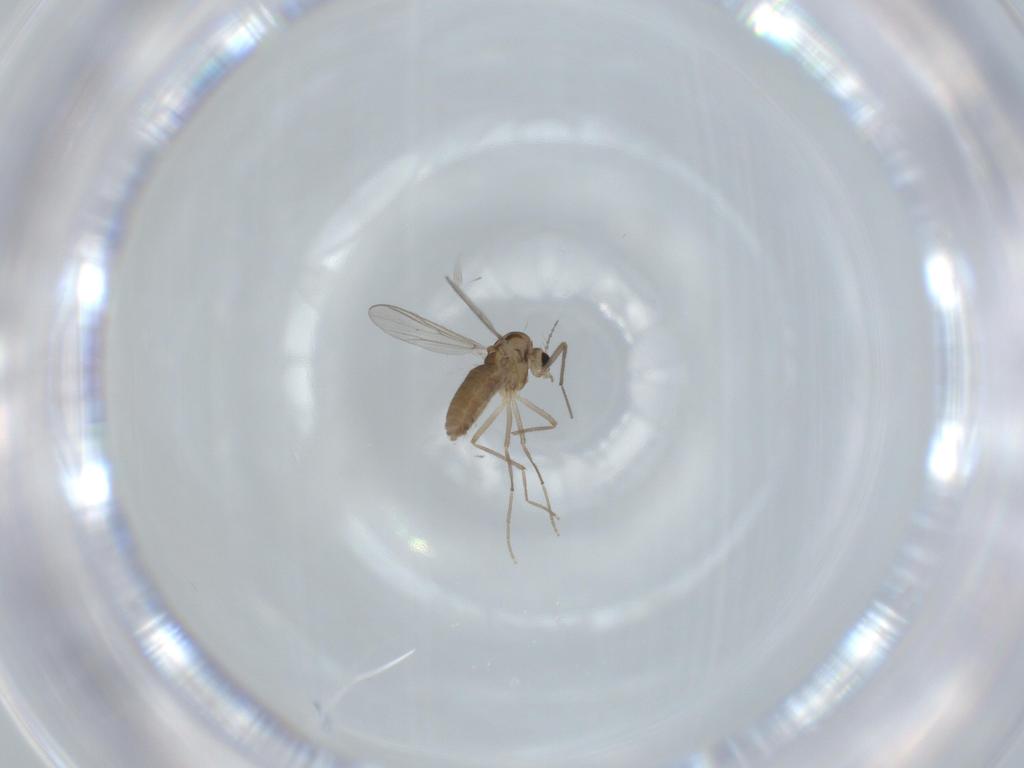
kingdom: Animalia
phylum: Arthropoda
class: Insecta
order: Diptera
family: Chironomidae
